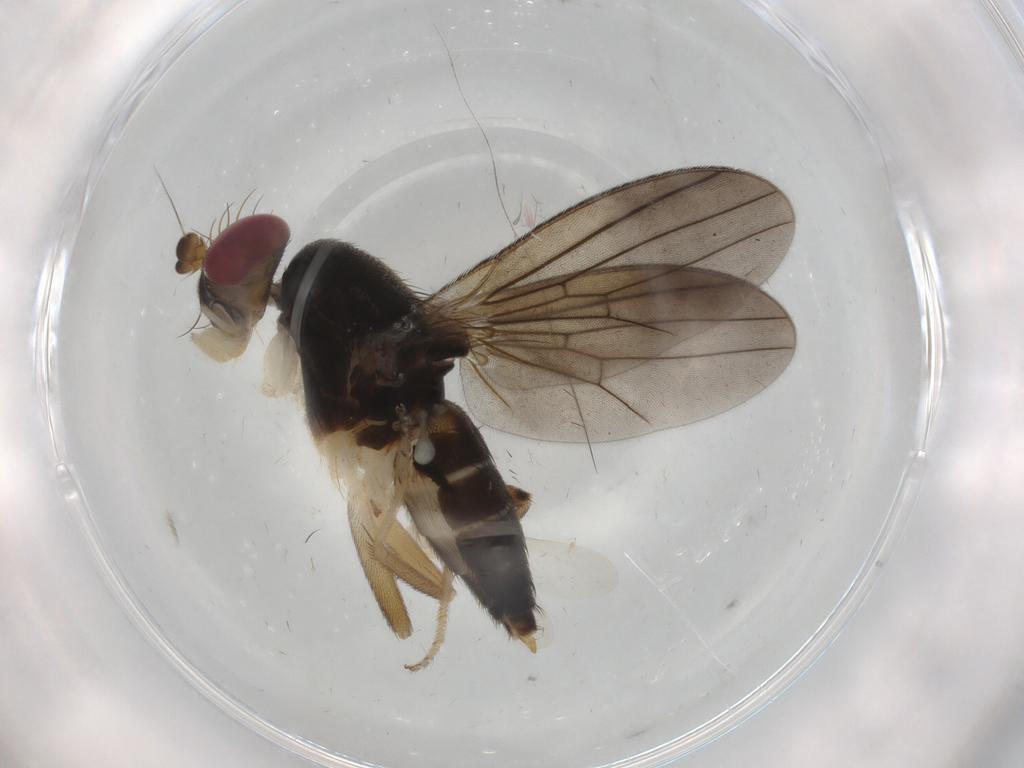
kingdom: Animalia
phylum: Arthropoda
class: Insecta
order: Diptera
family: Clusiidae
